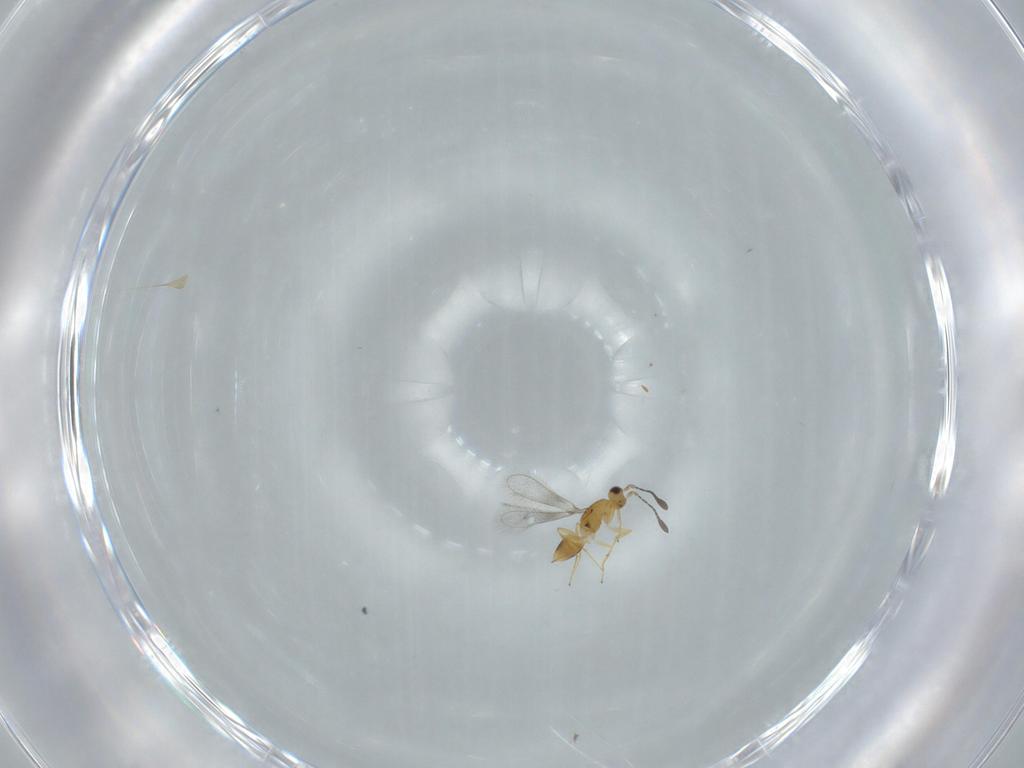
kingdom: Animalia
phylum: Arthropoda
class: Insecta
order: Hymenoptera
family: Mymaridae
